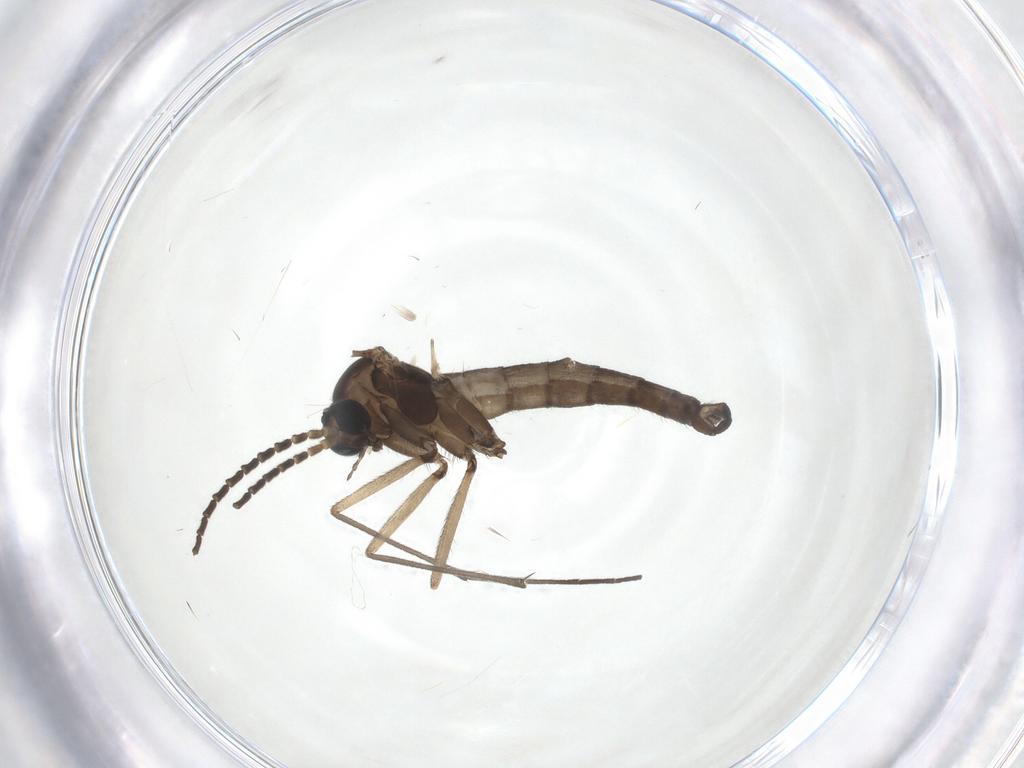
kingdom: Animalia
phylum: Arthropoda
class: Insecta
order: Diptera
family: Sciaridae
